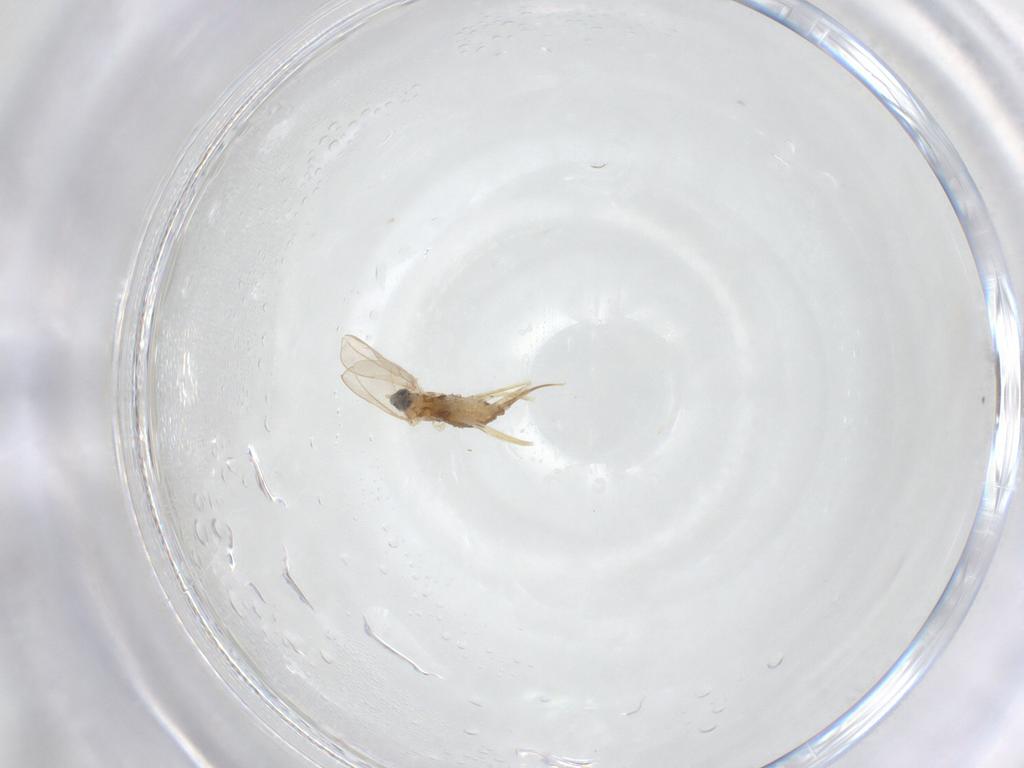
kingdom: Animalia
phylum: Arthropoda
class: Insecta
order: Diptera
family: Cecidomyiidae
